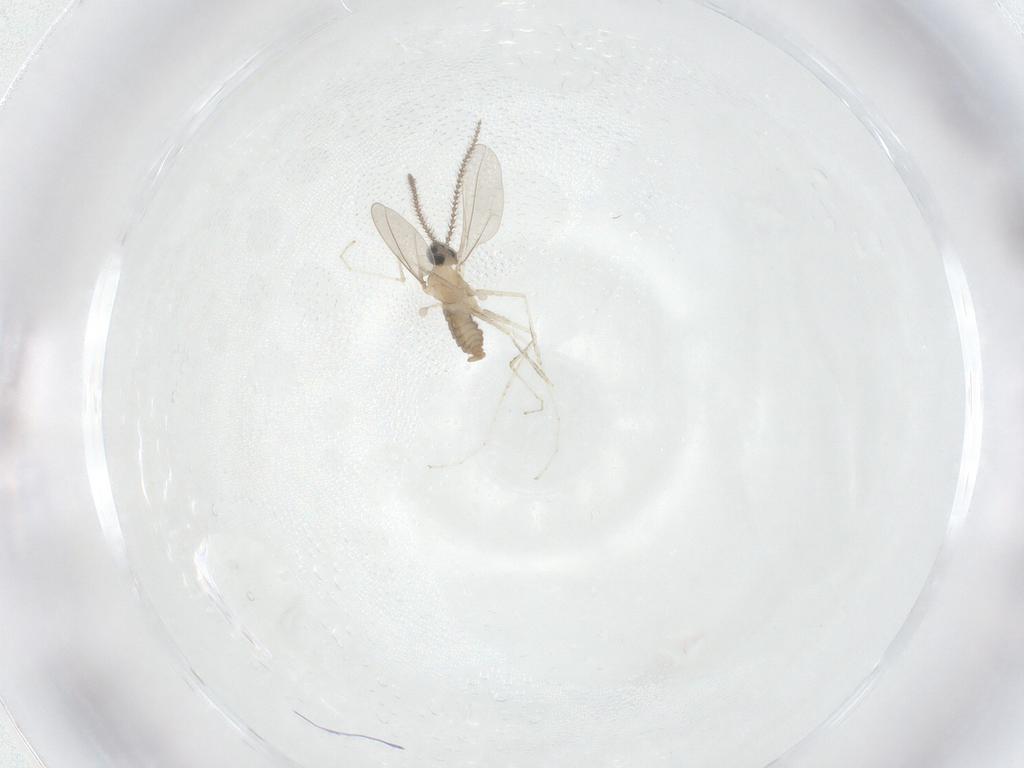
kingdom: Animalia
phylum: Arthropoda
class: Insecta
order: Diptera
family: Cecidomyiidae
